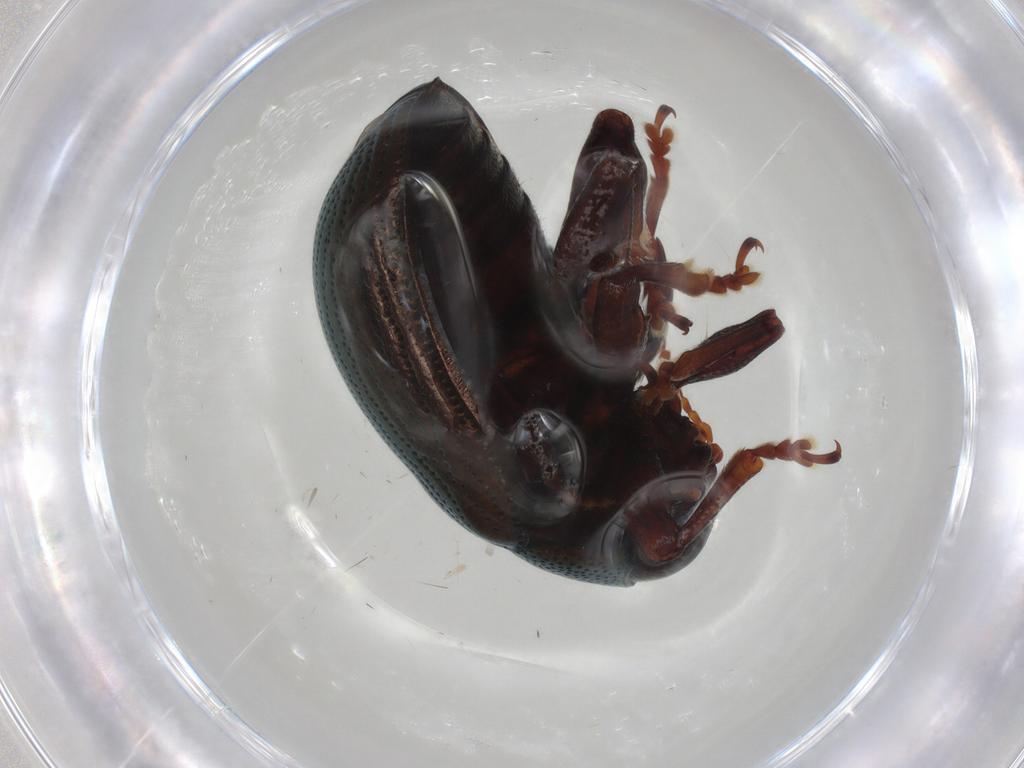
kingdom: Animalia
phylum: Arthropoda
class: Insecta
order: Coleoptera
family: Chrysomelidae
